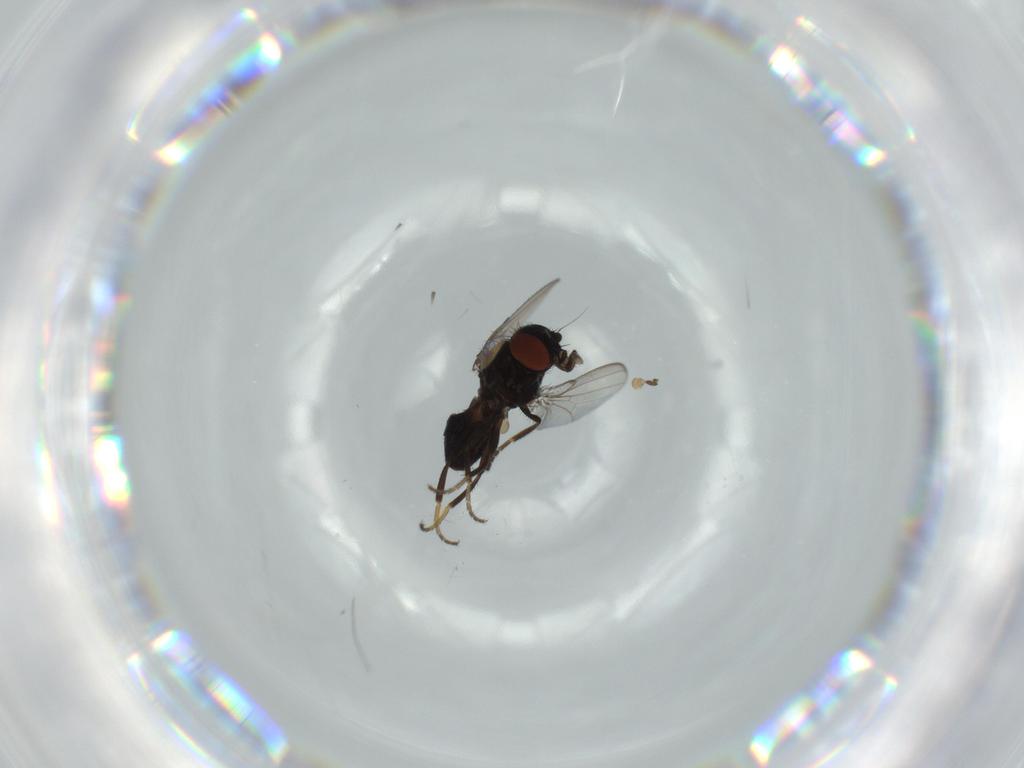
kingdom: Animalia
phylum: Arthropoda
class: Insecta
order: Diptera
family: Milichiidae
